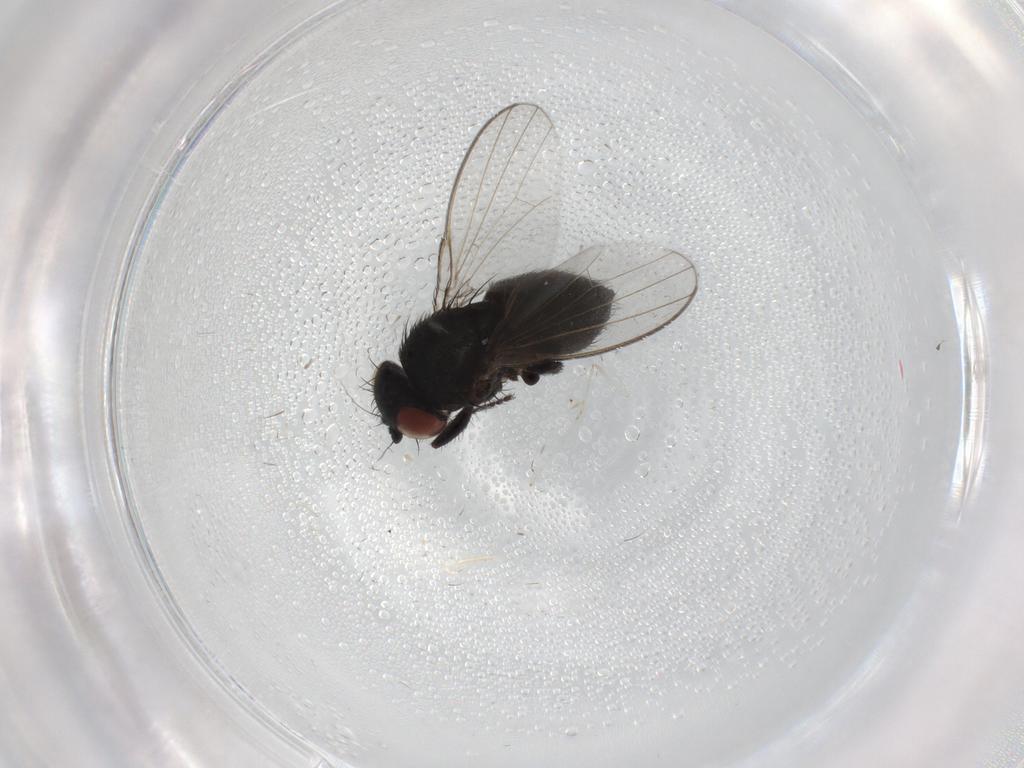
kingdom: Animalia
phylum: Arthropoda
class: Insecta
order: Diptera
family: Milichiidae
